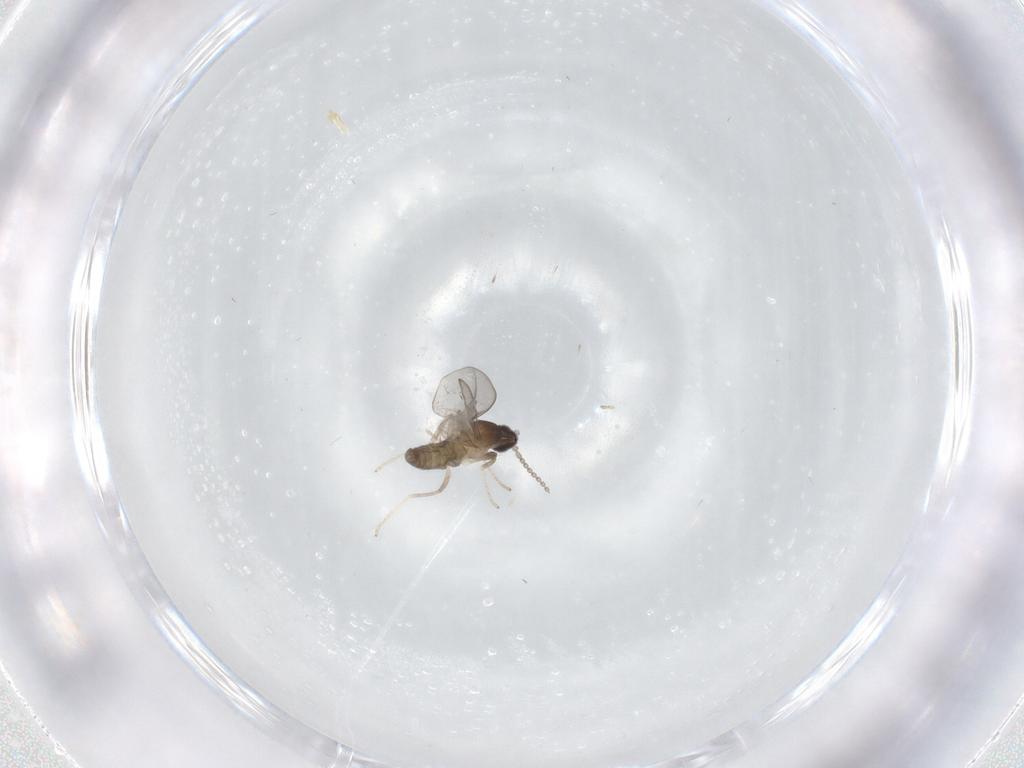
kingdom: Animalia
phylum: Arthropoda
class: Insecta
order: Diptera
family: Cecidomyiidae
